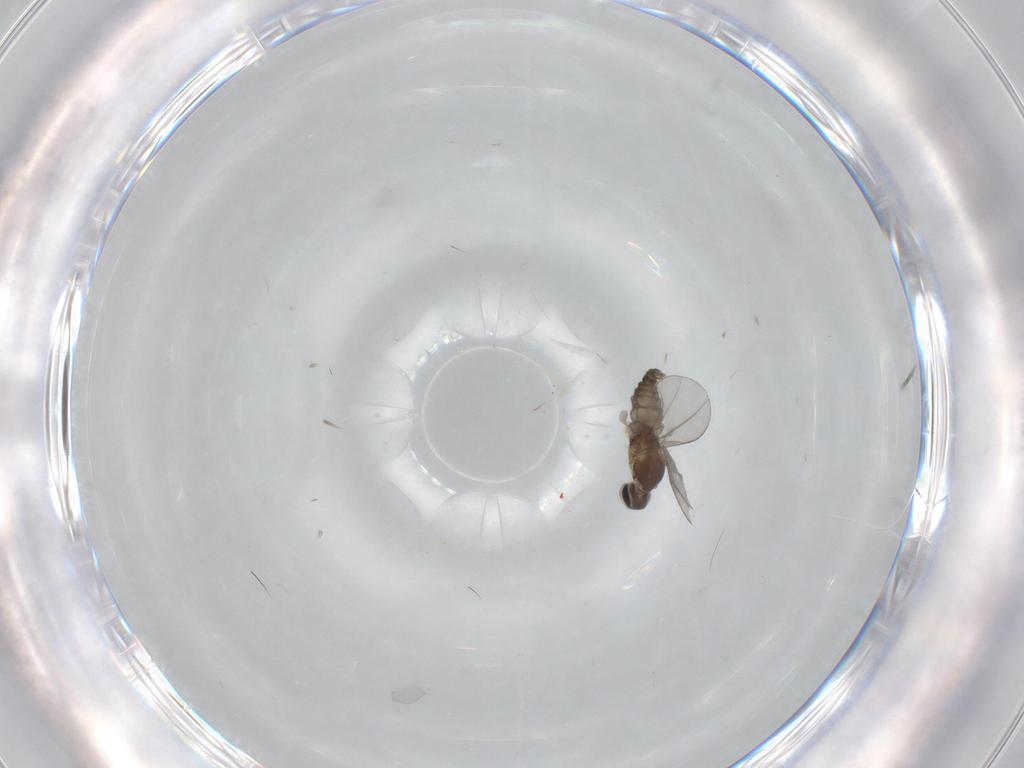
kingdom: Animalia
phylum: Arthropoda
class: Insecta
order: Diptera
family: Cecidomyiidae
